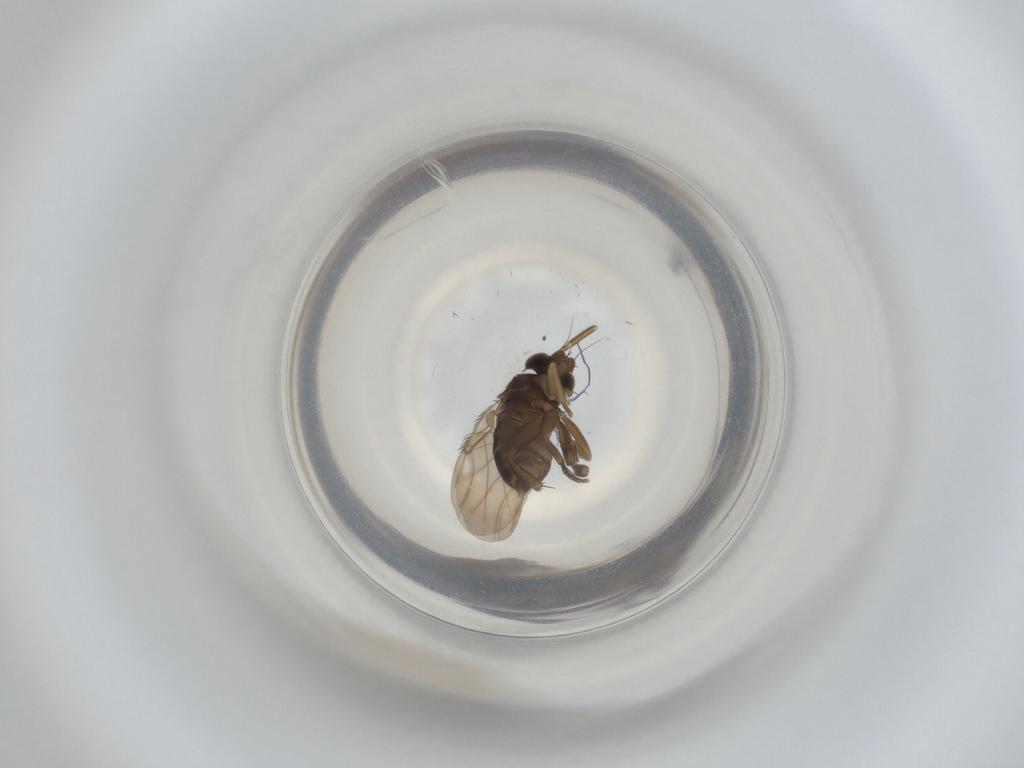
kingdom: Animalia
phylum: Arthropoda
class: Insecta
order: Diptera
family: Phoridae
